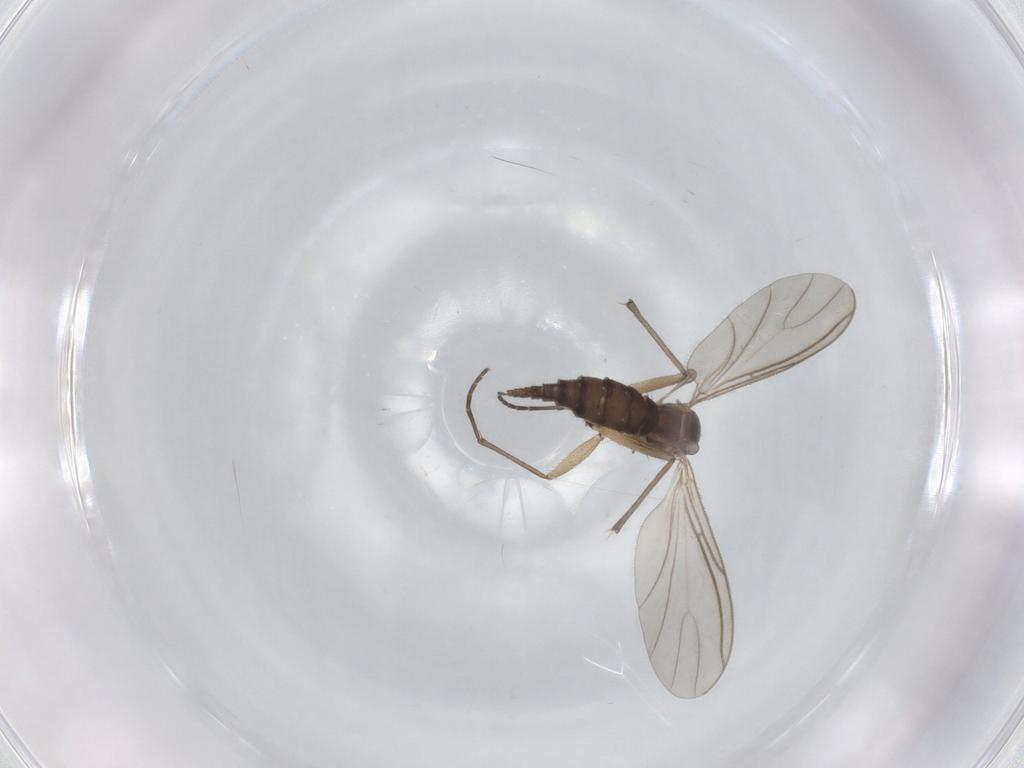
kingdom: Animalia
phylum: Arthropoda
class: Insecta
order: Diptera
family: Sciaridae
